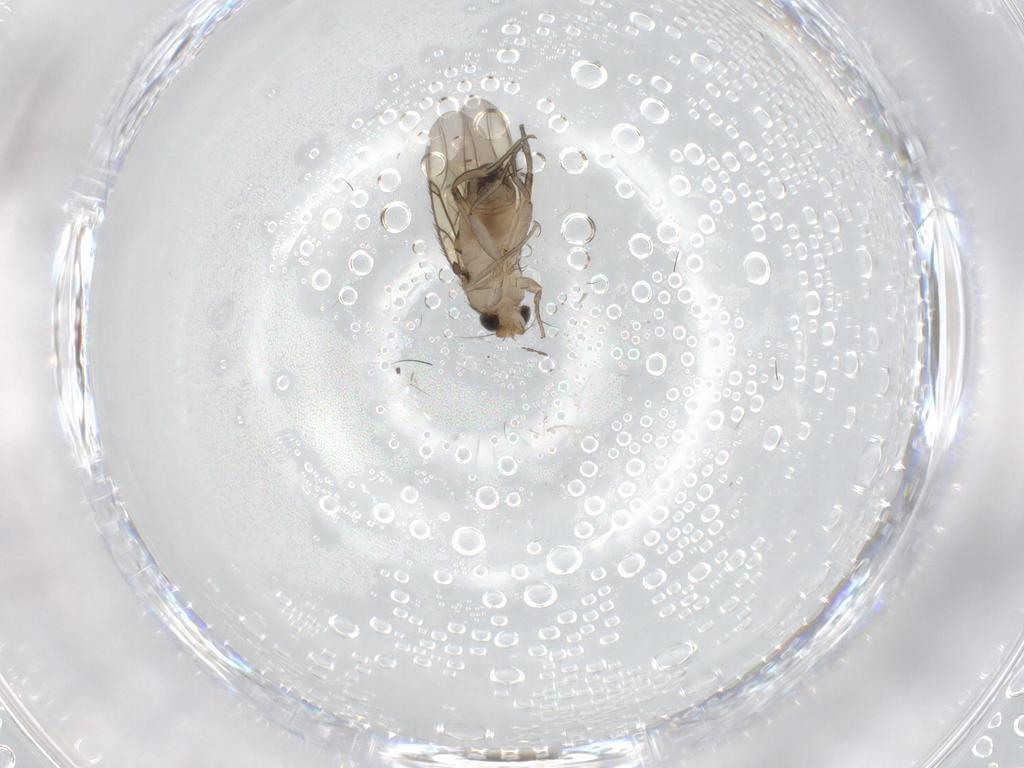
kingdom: Animalia
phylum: Arthropoda
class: Insecta
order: Diptera
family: Phoridae
